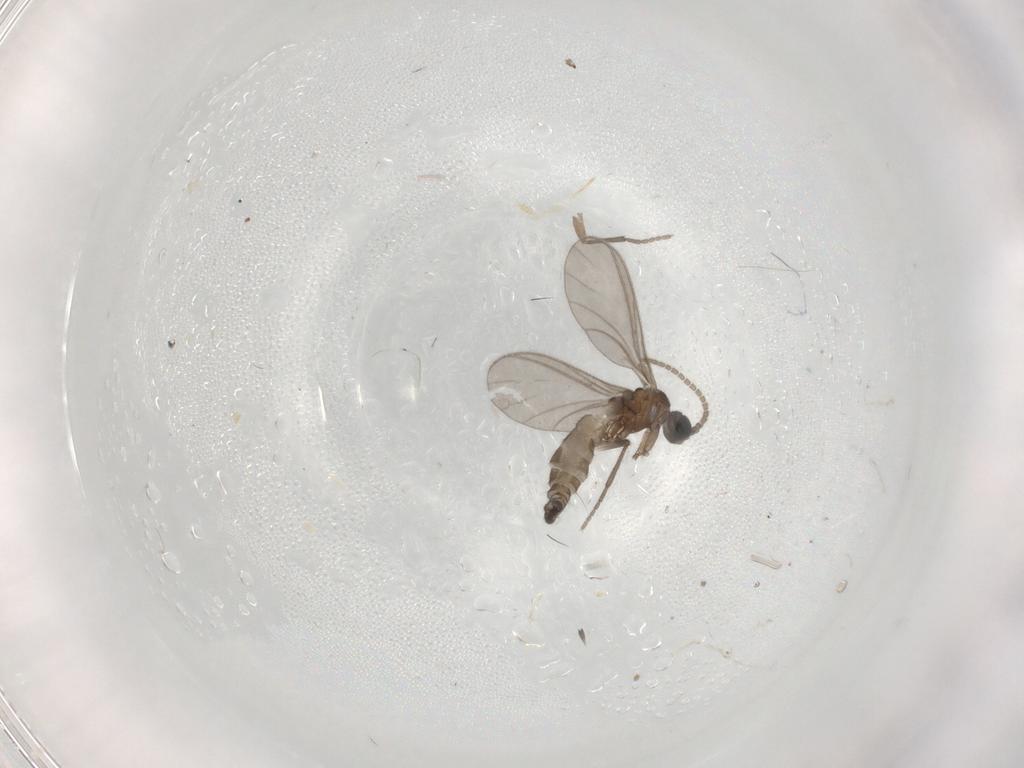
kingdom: Animalia
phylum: Arthropoda
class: Insecta
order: Diptera
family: Sciaridae
